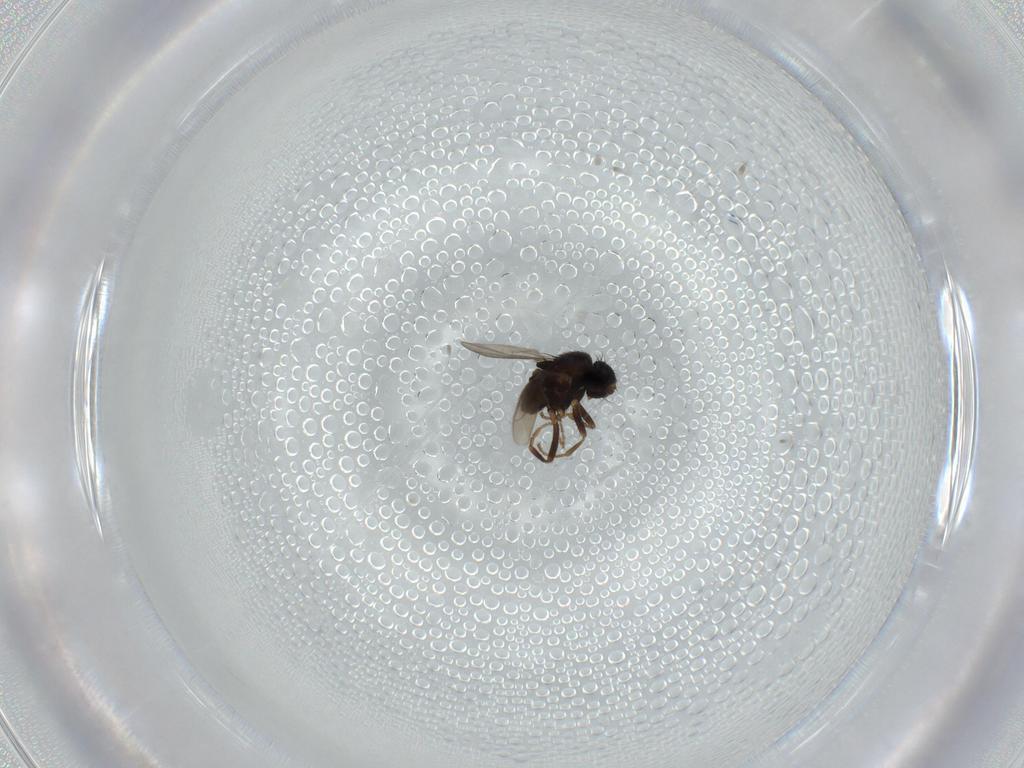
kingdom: Animalia
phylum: Arthropoda
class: Insecta
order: Diptera
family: Sphaeroceridae
